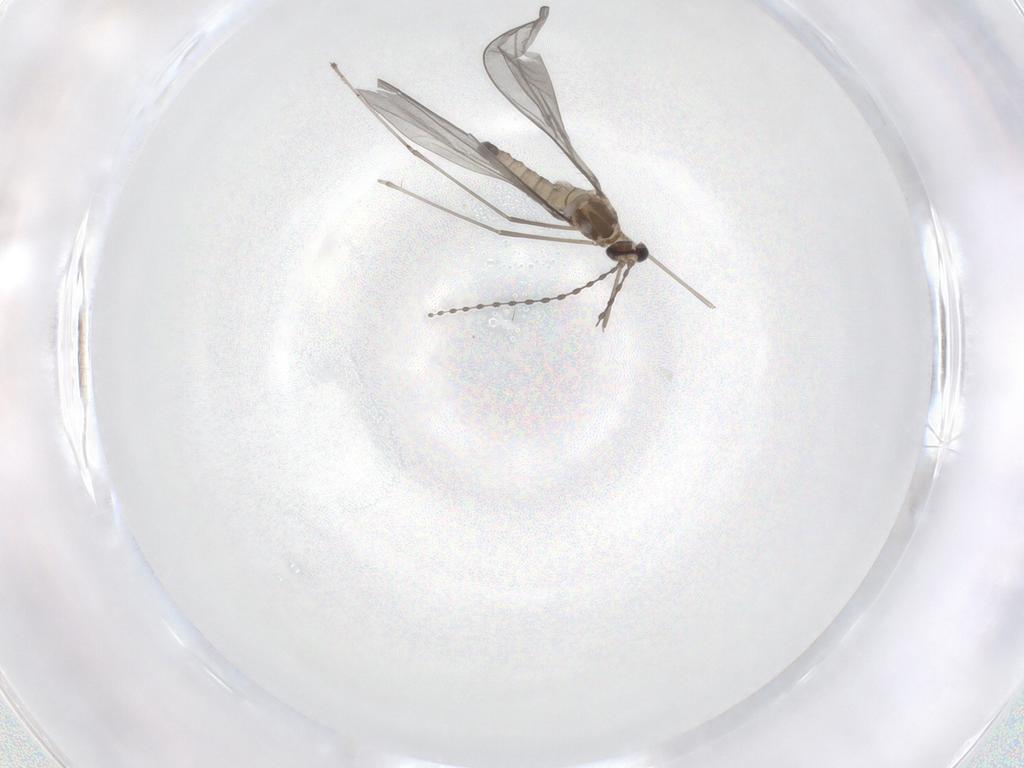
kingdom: Animalia
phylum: Arthropoda
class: Insecta
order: Diptera
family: Cecidomyiidae
